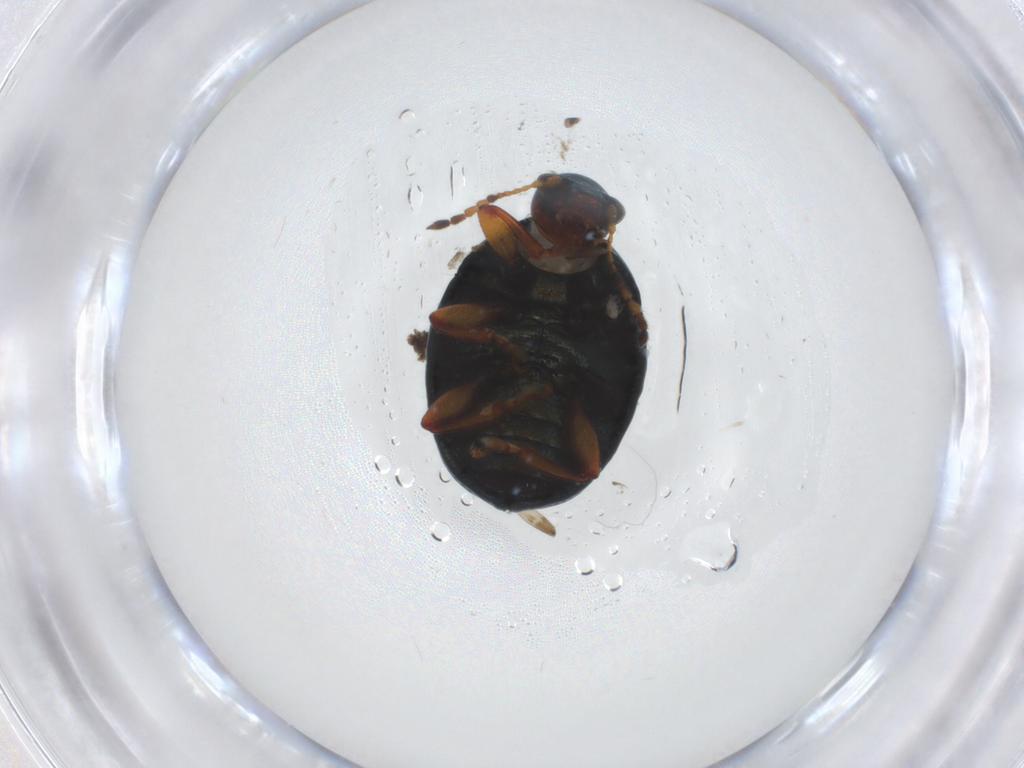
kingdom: Animalia
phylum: Arthropoda
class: Insecta
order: Coleoptera
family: Chrysomelidae
